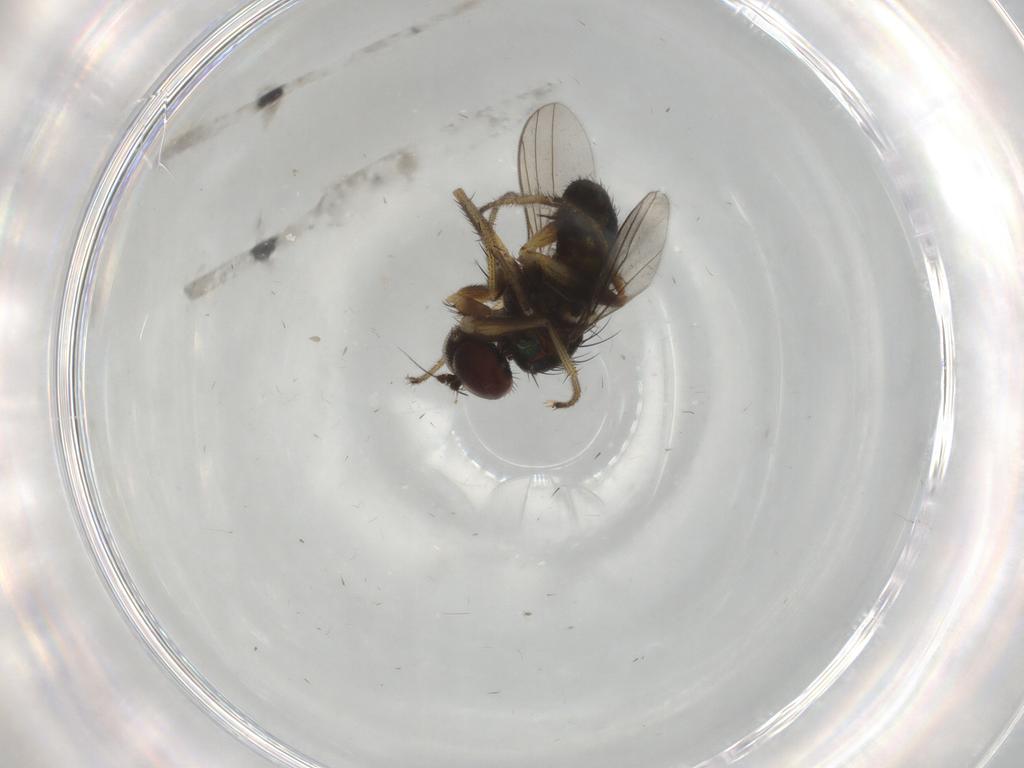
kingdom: Animalia
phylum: Arthropoda
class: Insecta
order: Diptera
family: Dolichopodidae
